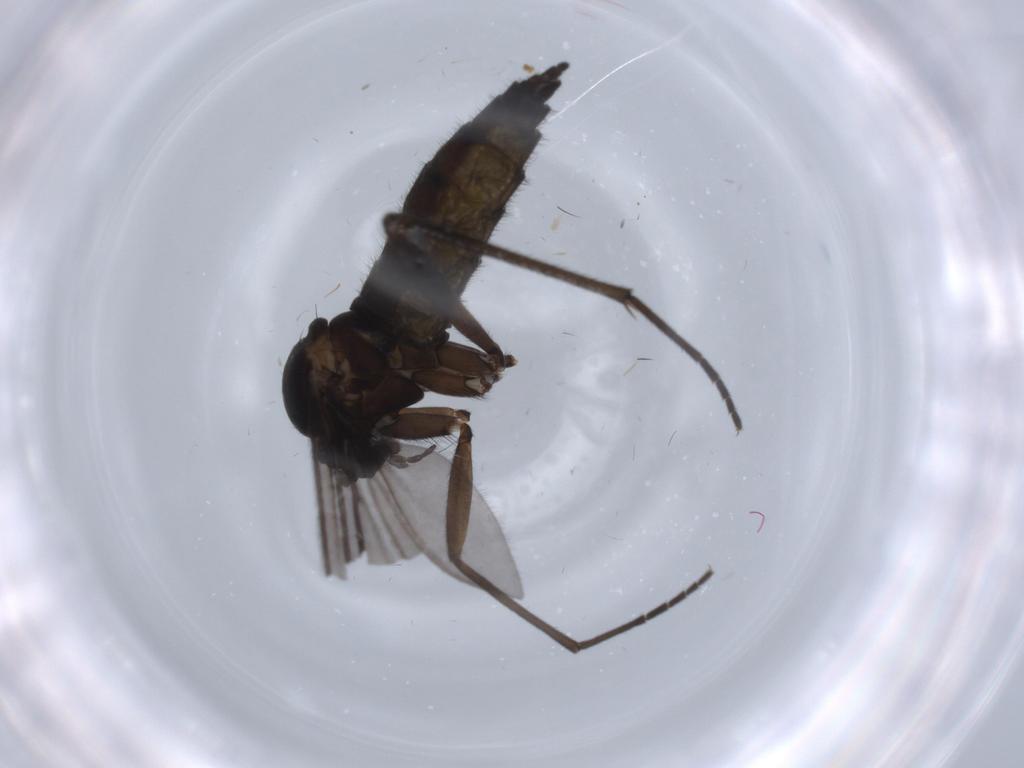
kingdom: Animalia
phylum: Arthropoda
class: Insecta
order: Diptera
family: Sciaridae
